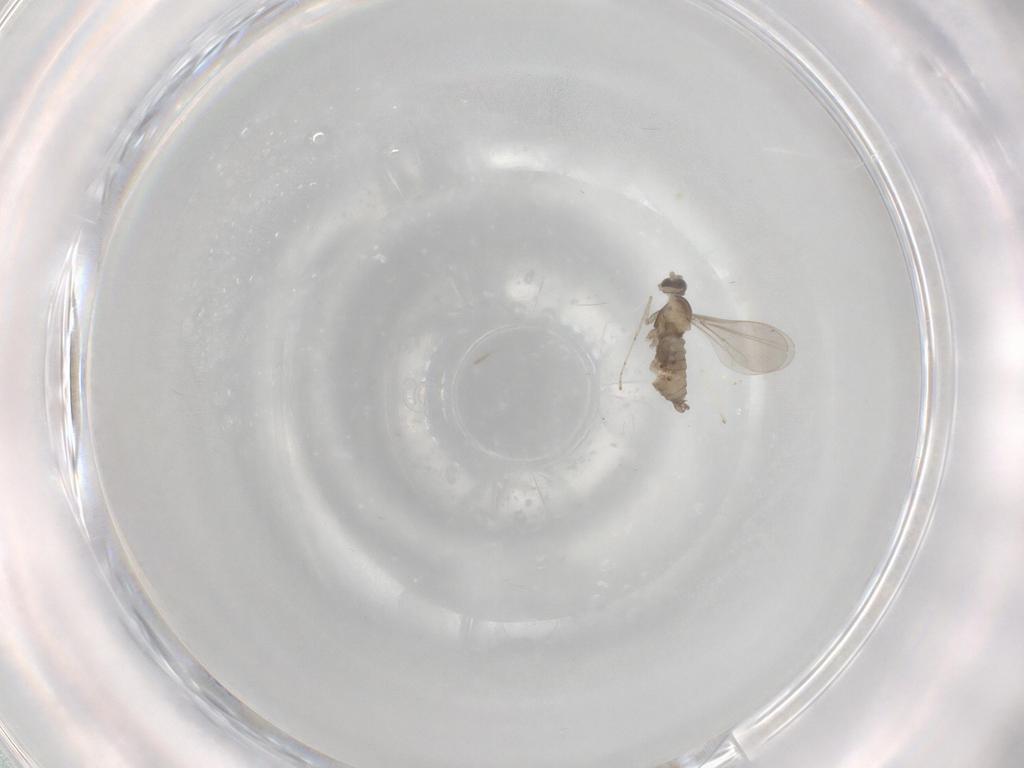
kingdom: Animalia
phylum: Arthropoda
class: Insecta
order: Diptera
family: Cecidomyiidae
